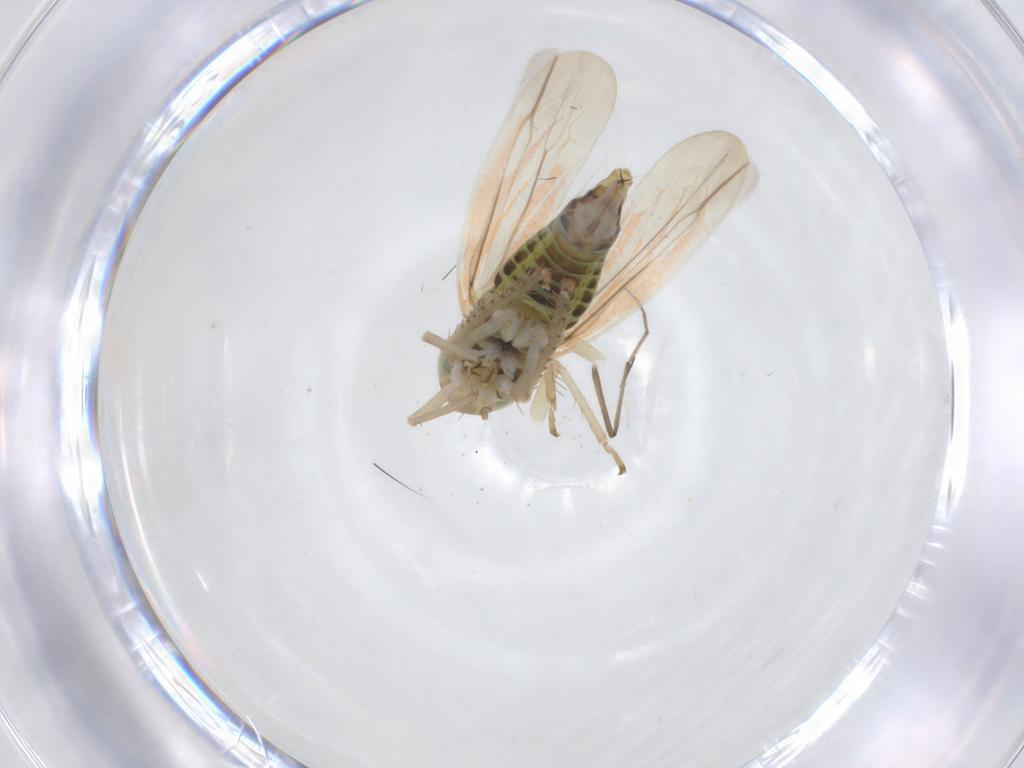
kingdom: Animalia
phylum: Arthropoda
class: Insecta
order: Hemiptera
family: Cicadellidae
